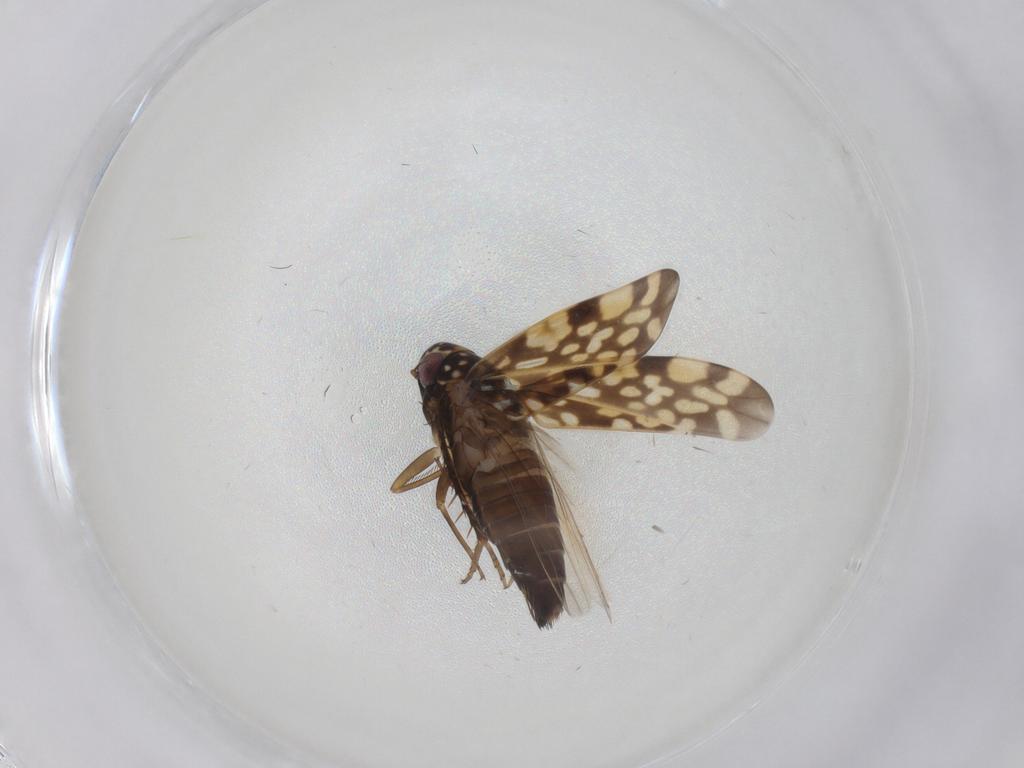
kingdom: Animalia
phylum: Arthropoda
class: Insecta
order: Hemiptera
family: Cicadellidae
